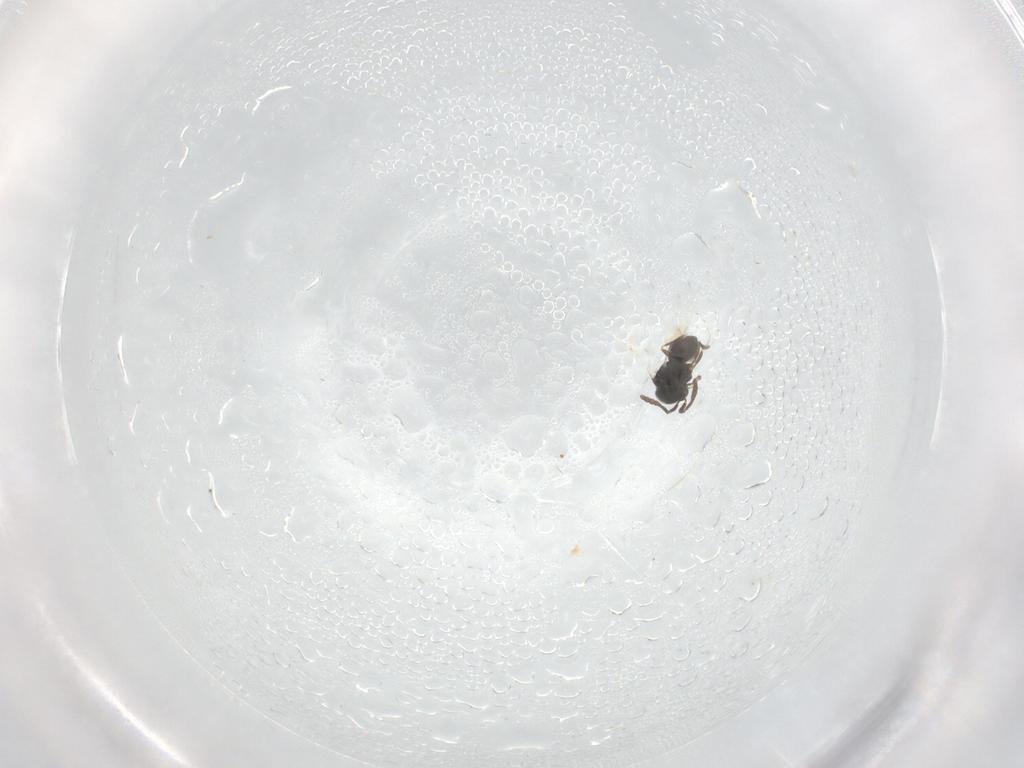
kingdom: Animalia
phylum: Arthropoda
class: Insecta
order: Hymenoptera
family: Scelionidae
